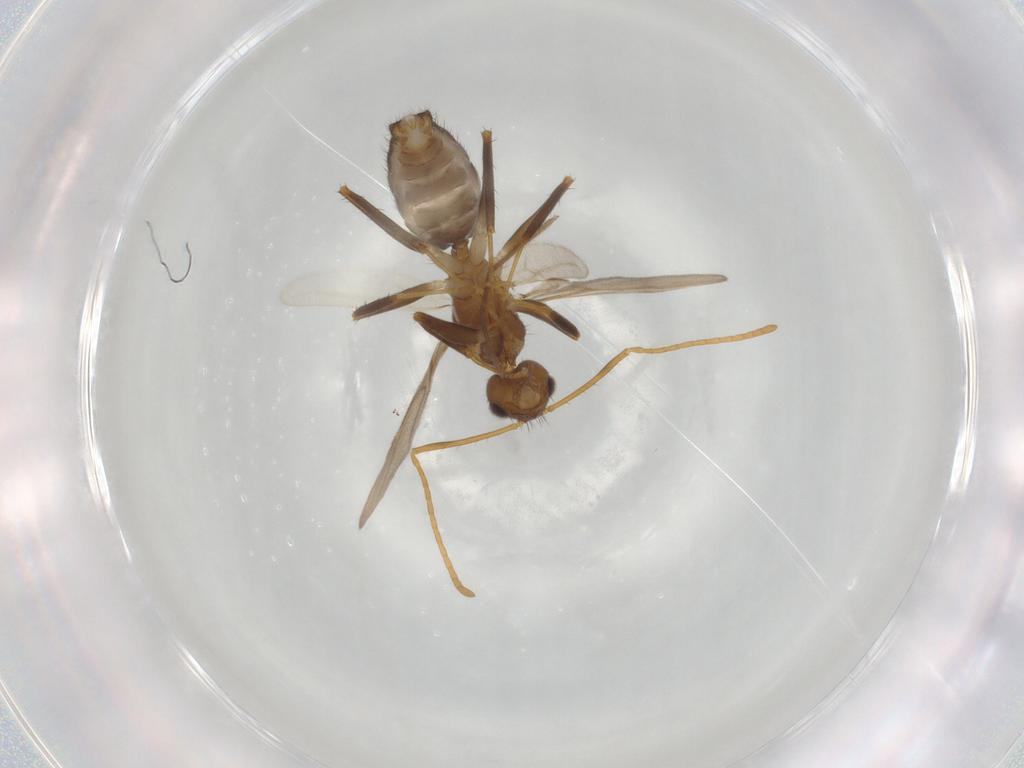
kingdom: Animalia
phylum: Arthropoda
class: Insecta
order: Hymenoptera
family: Formicidae
